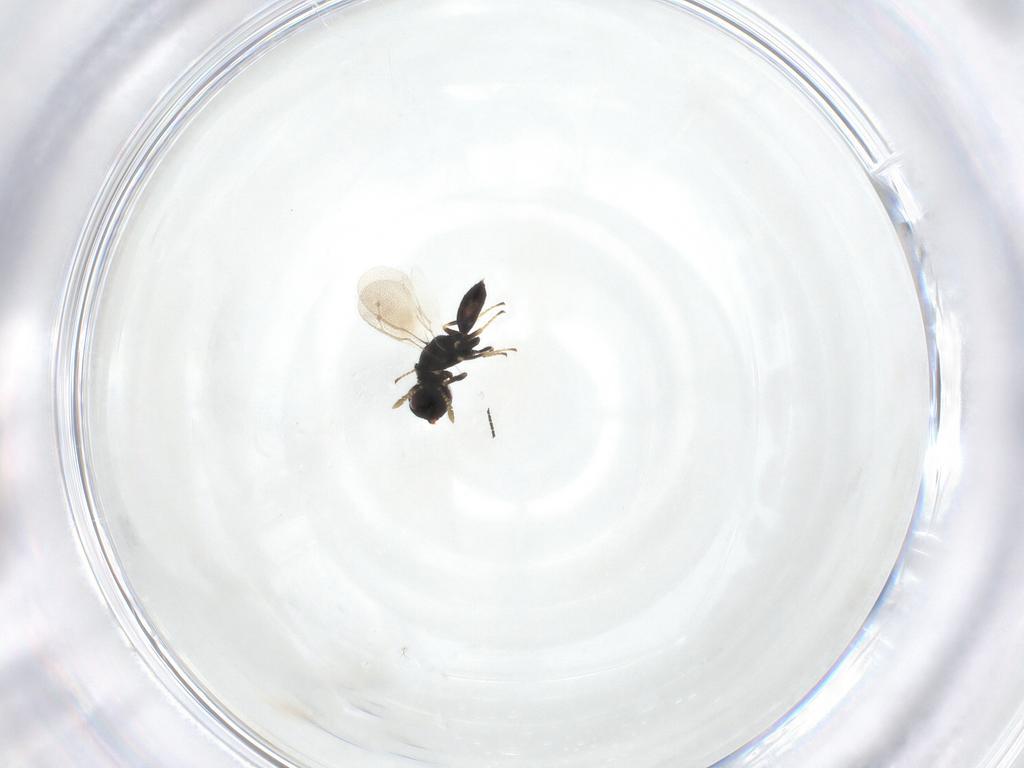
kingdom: Animalia
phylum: Arthropoda
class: Insecta
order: Hymenoptera
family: Pteromalidae
